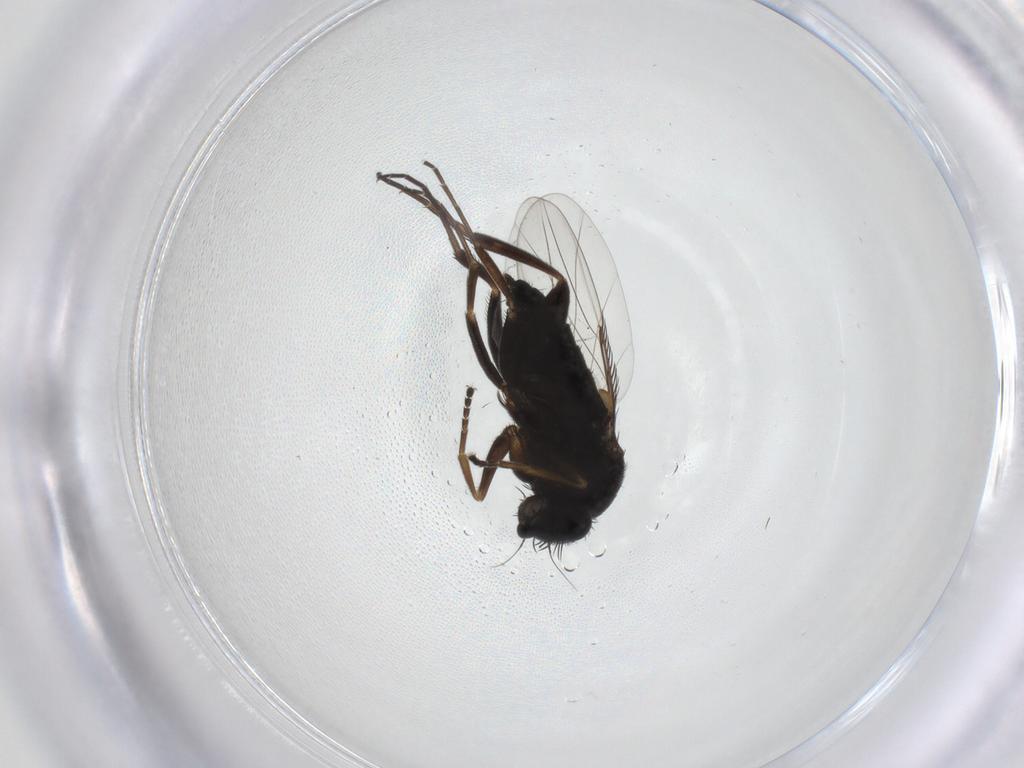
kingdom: Animalia
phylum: Arthropoda
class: Insecta
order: Diptera
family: Phoridae
